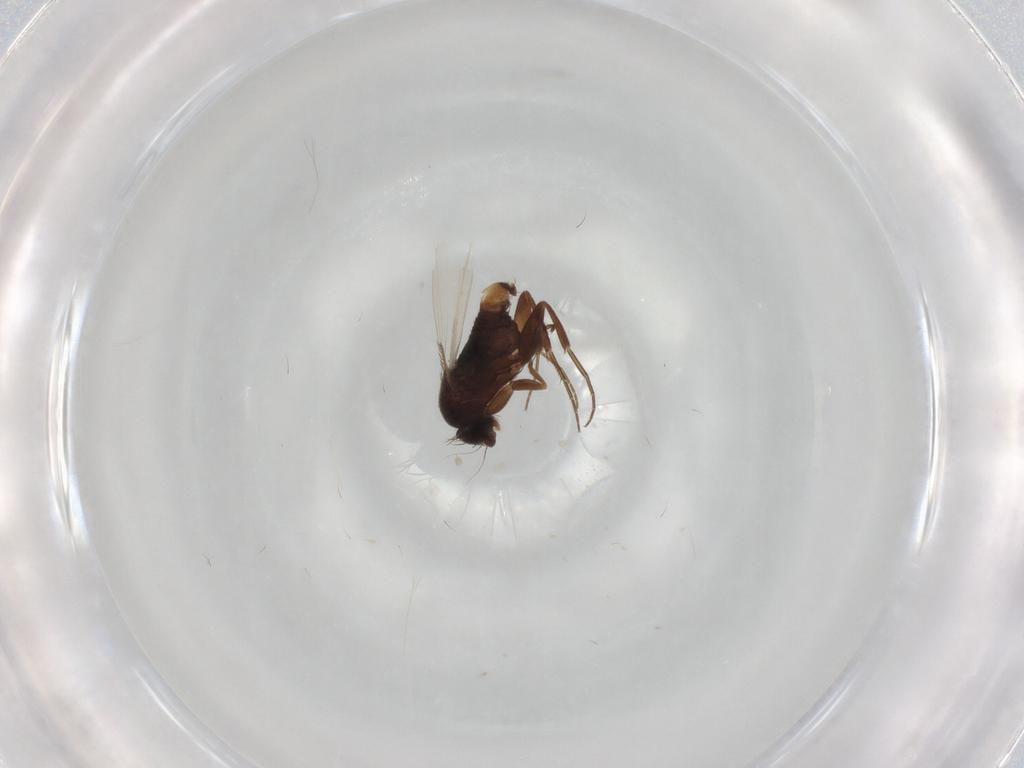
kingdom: Animalia
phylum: Arthropoda
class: Insecta
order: Diptera
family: Phoridae
